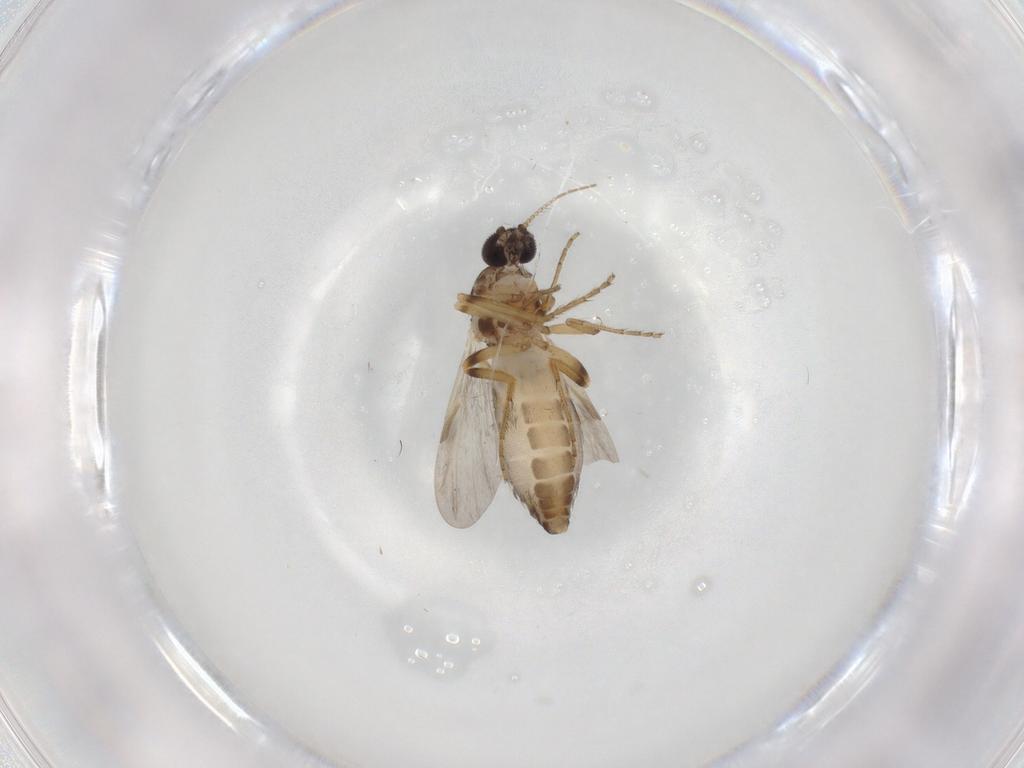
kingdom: Animalia
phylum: Arthropoda
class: Insecta
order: Diptera
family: Ceratopogonidae
